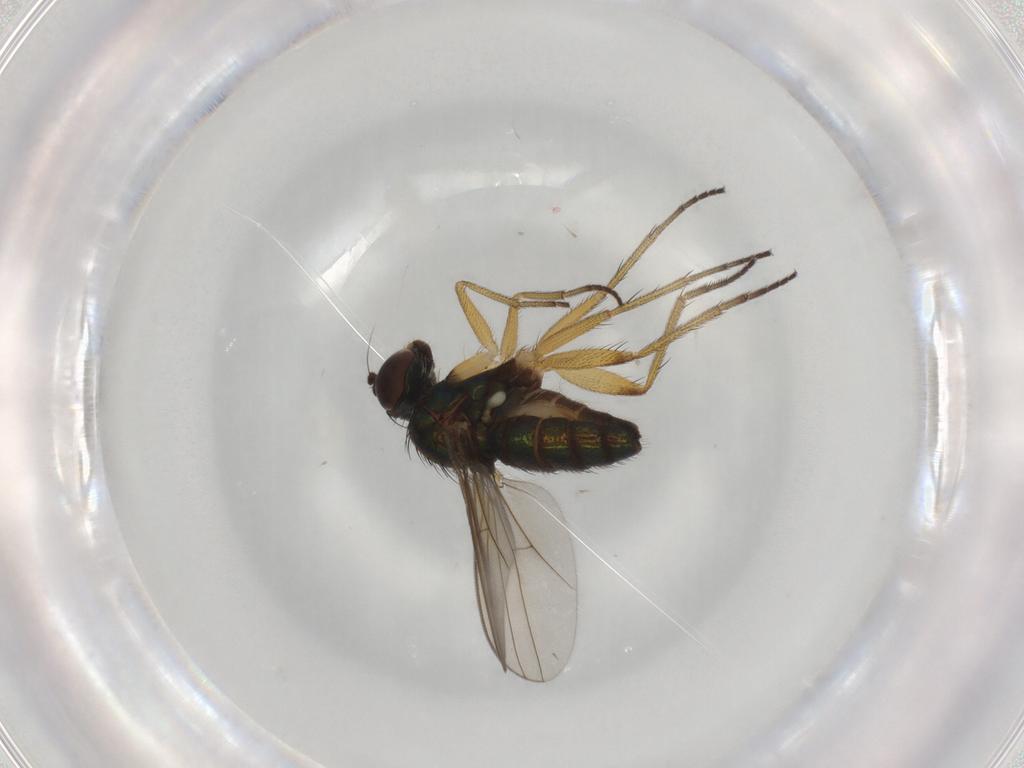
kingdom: Animalia
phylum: Arthropoda
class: Insecta
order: Diptera
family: Dolichopodidae
